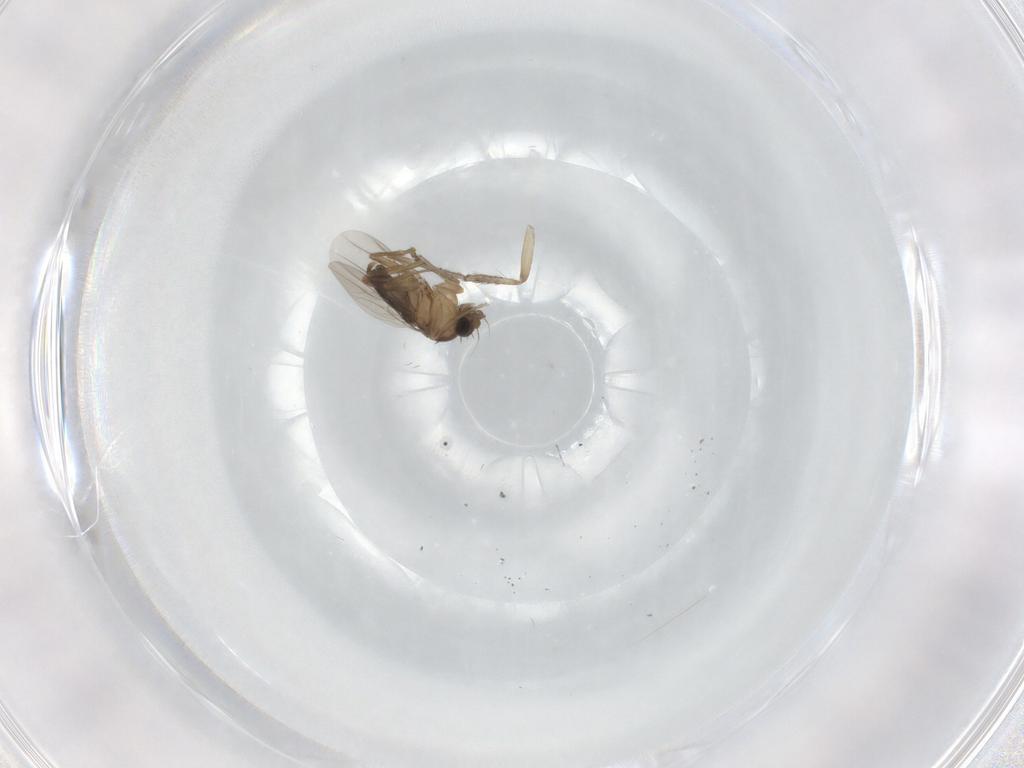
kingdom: Animalia
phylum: Arthropoda
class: Insecta
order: Diptera
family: Phoridae
